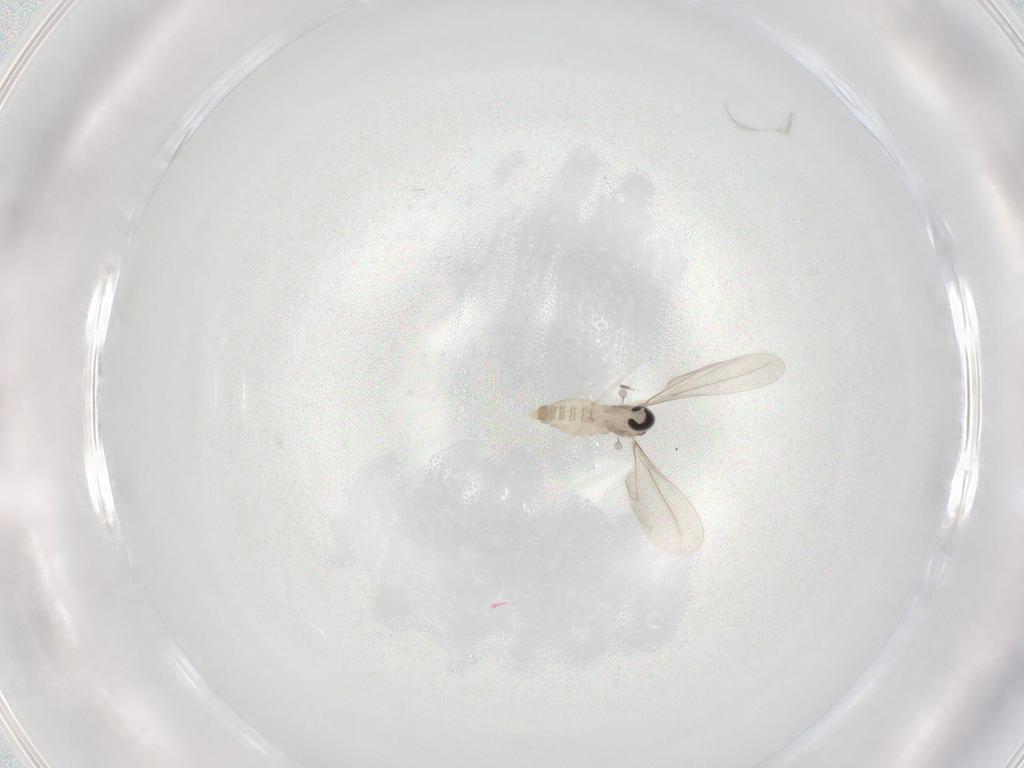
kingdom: Animalia
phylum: Arthropoda
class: Insecta
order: Diptera
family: Cecidomyiidae
